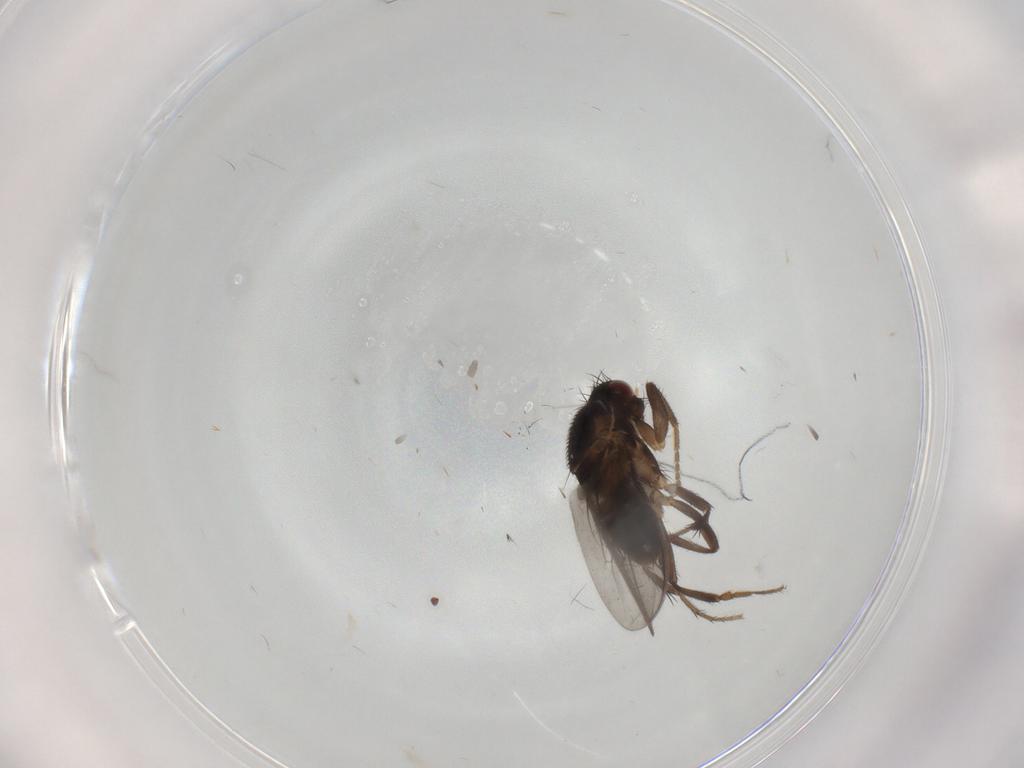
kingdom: Animalia
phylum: Arthropoda
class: Insecta
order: Diptera
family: Sphaeroceridae
